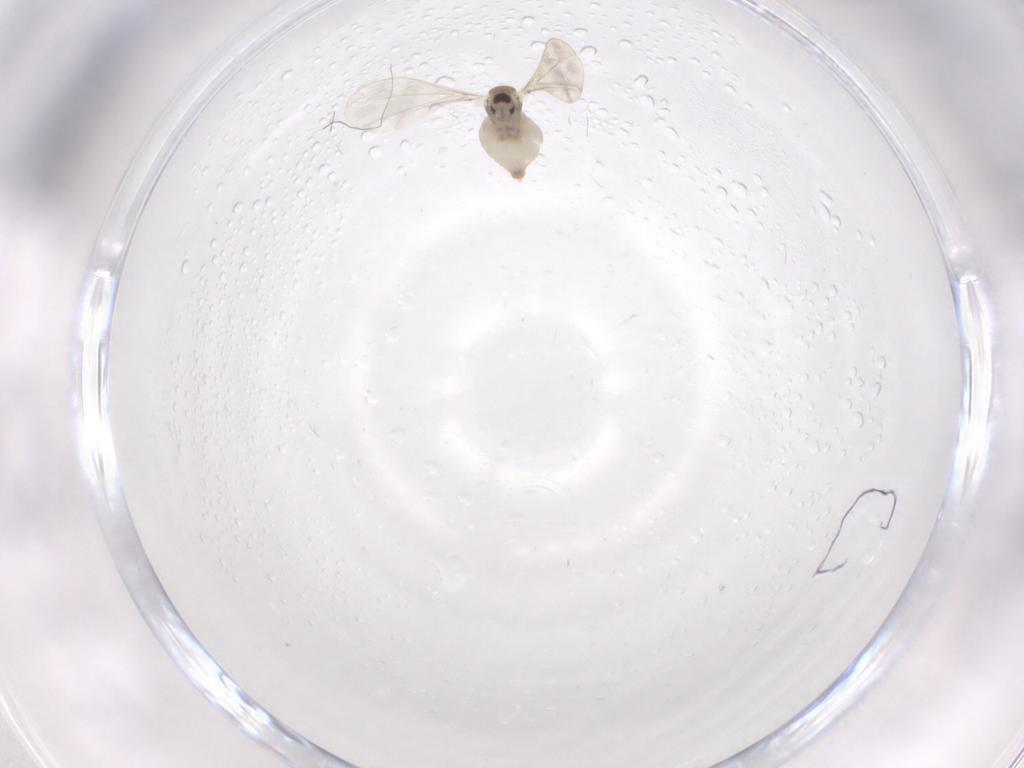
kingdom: Animalia
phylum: Arthropoda
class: Insecta
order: Diptera
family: Cecidomyiidae
